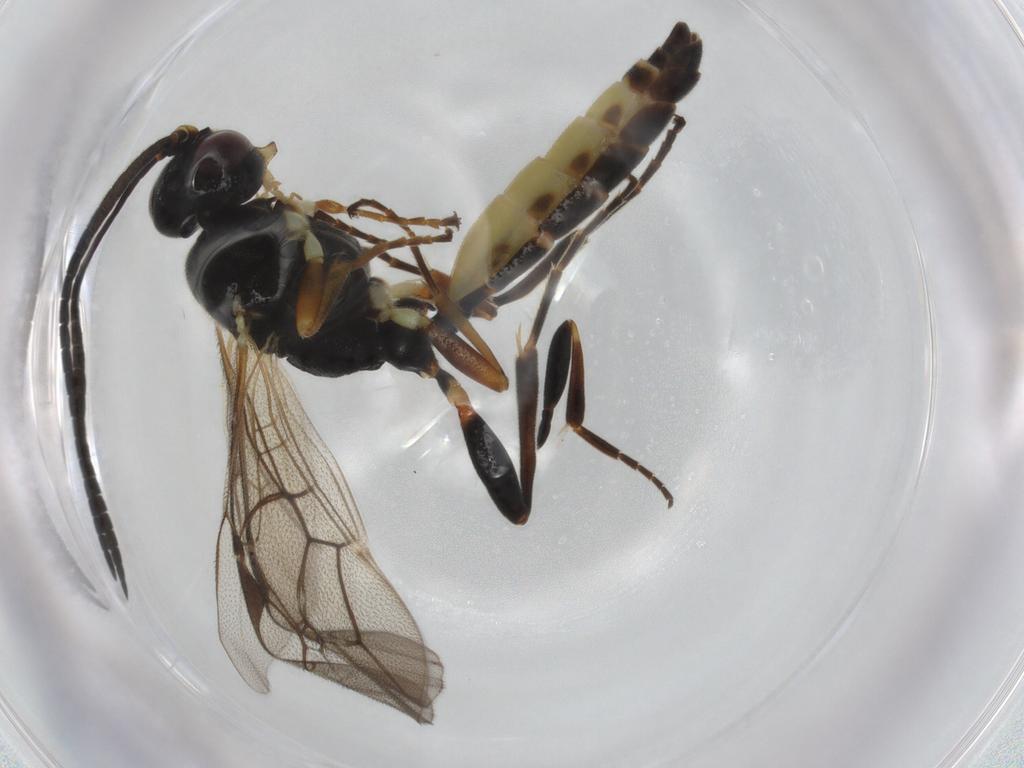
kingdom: Animalia
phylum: Arthropoda
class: Insecta
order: Hymenoptera
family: Ichneumonidae
